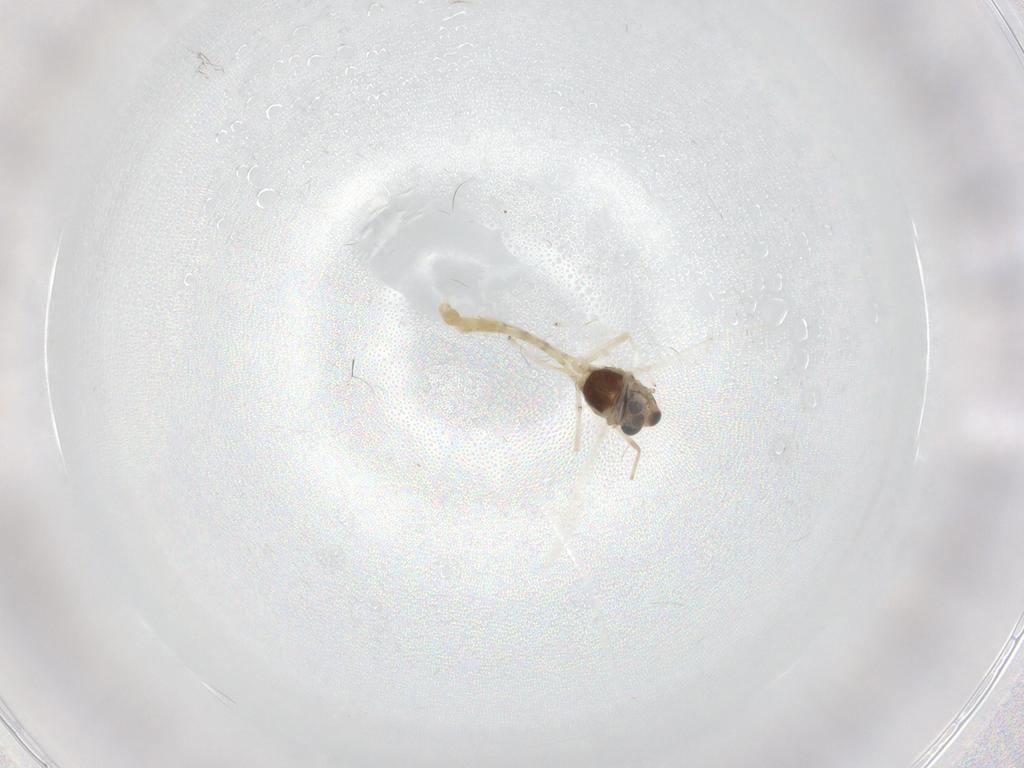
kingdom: Animalia
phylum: Arthropoda
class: Insecta
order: Diptera
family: Chironomidae
